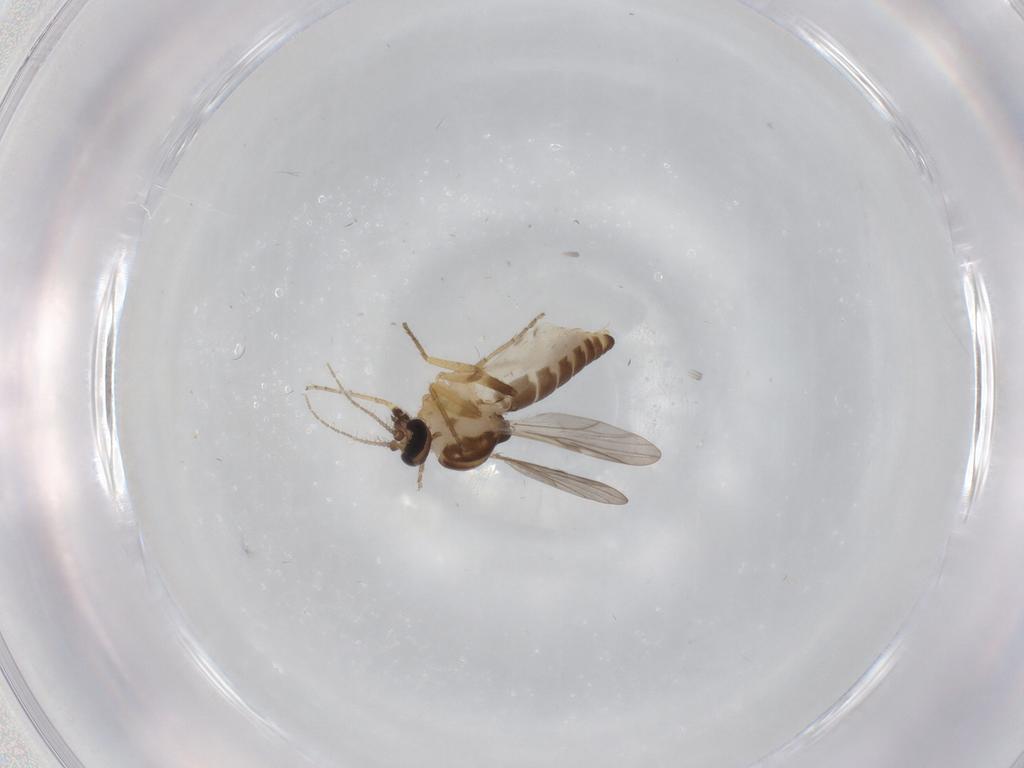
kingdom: Animalia
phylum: Arthropoda
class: Insecta
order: Diptera
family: Ceratopogonidae
